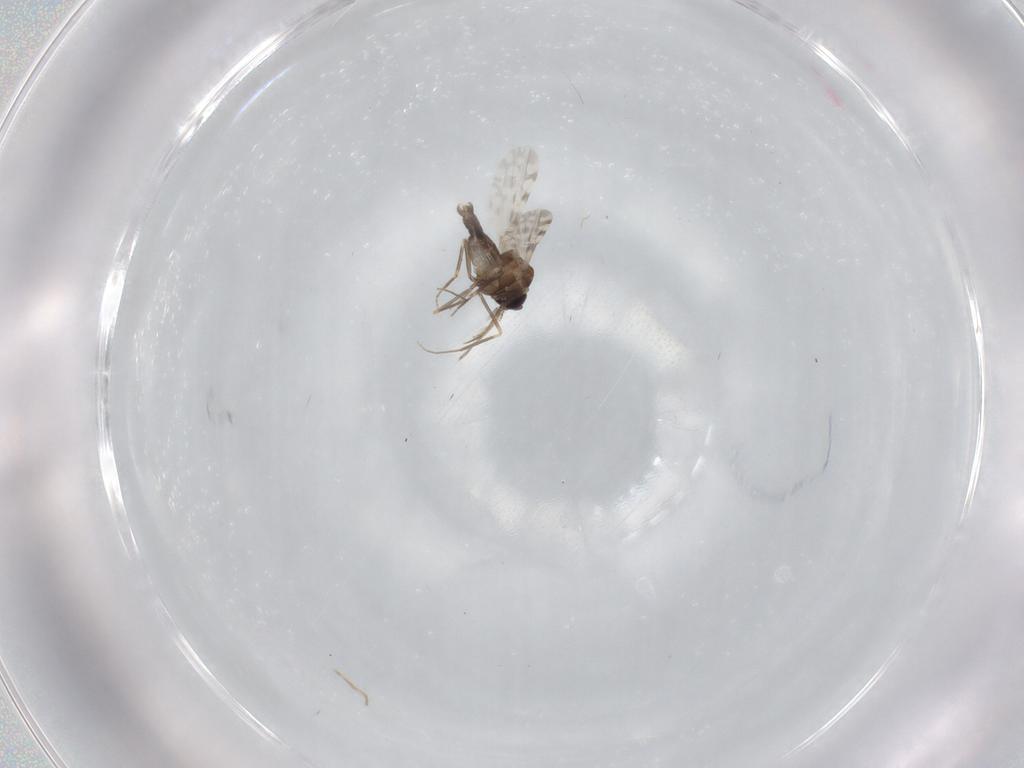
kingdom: Animalia
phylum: Arthropoda
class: Insecta
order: Diptera
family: Ceratopogonidae
